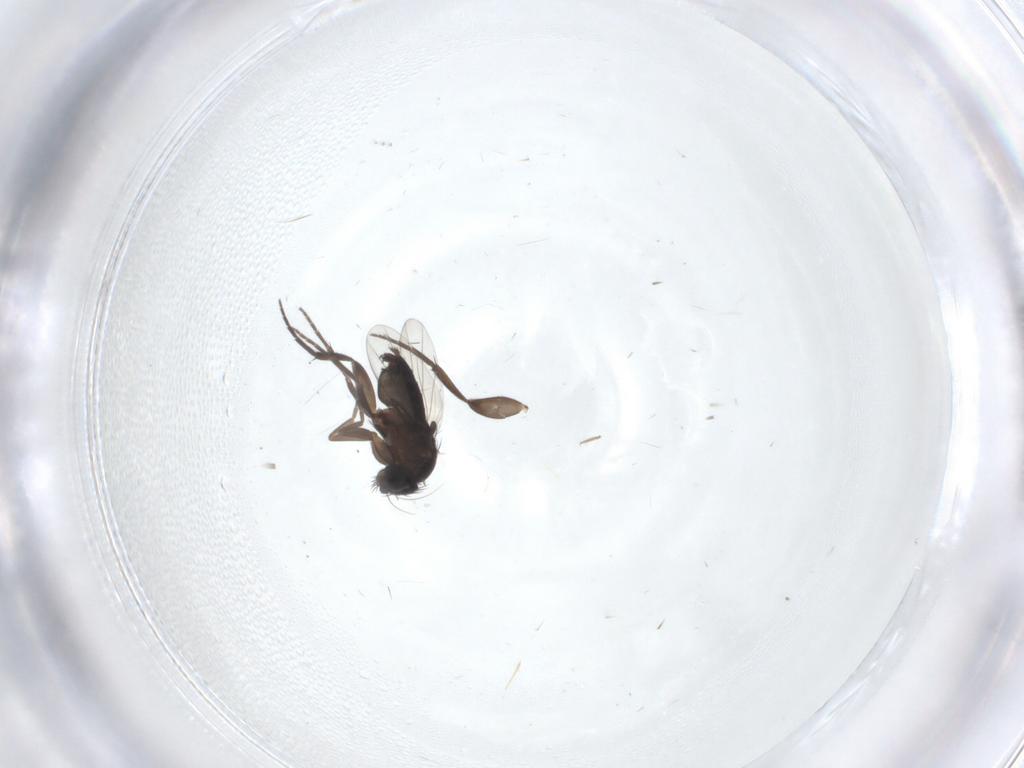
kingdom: Animalia
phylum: Arthropoda
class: Insecta
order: Diptera
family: Phoridae
